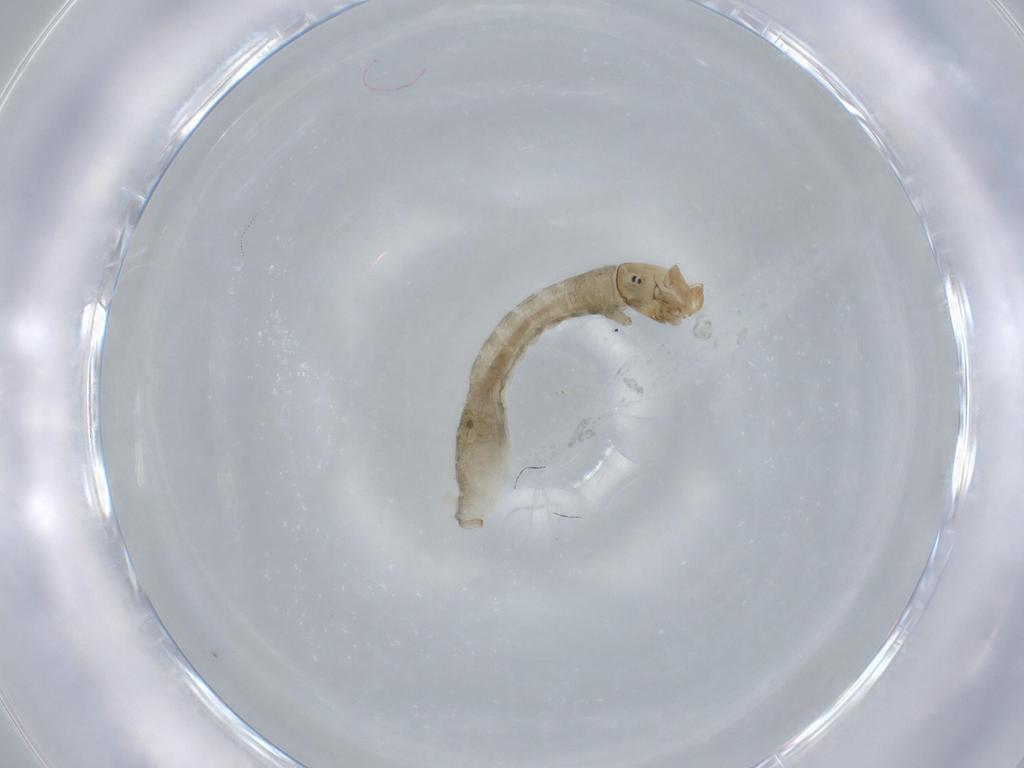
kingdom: Animalia
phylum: Arthropoda
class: Insecta
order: Diptera
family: Simuliidae
